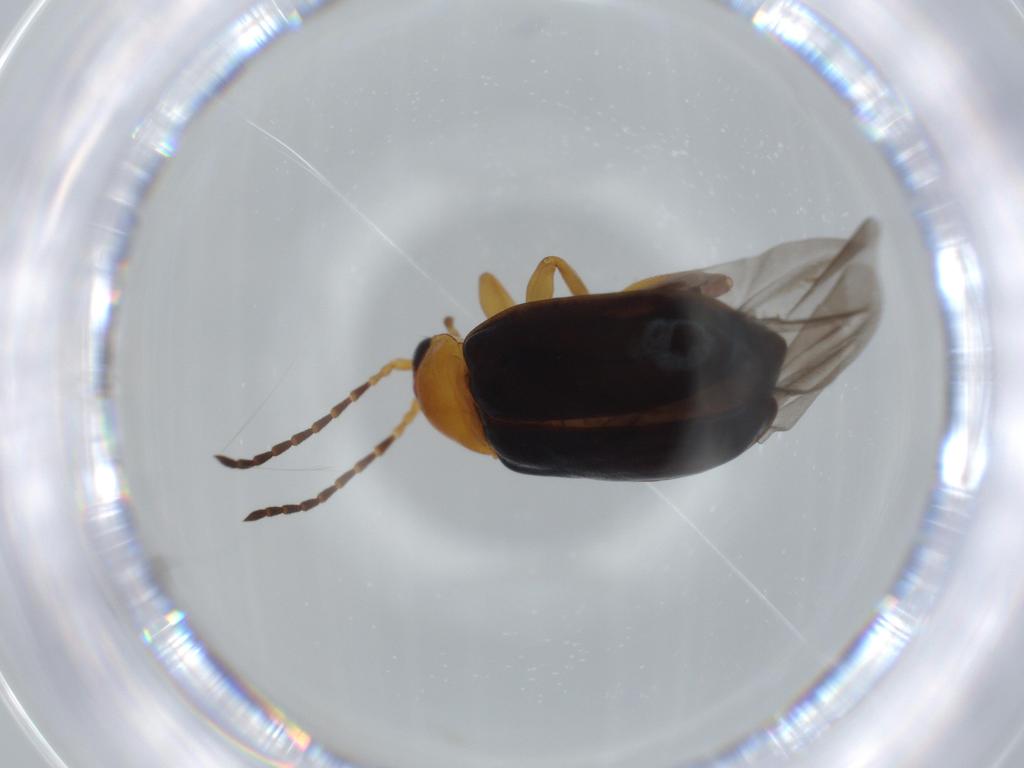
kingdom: Animalia
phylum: Arthropoda
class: Insecta
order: Coleoptera
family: Chrysomelidae
